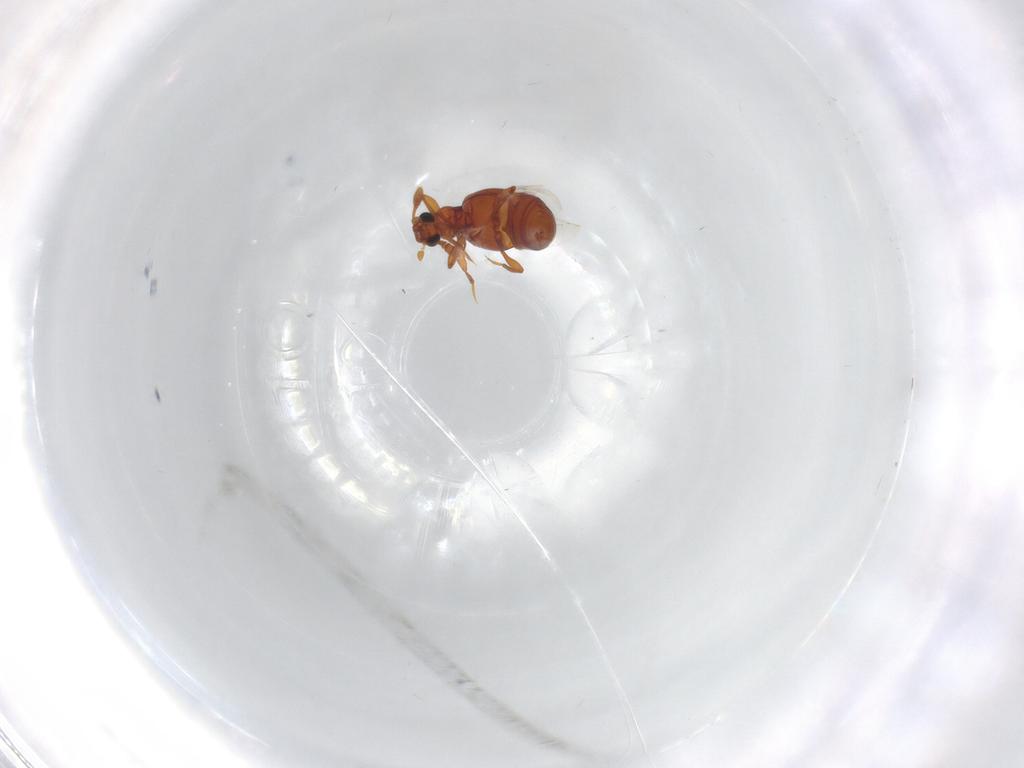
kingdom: Animalia
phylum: Arthropoda
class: Insecta
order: Coleoptera
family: Staphylinidae
